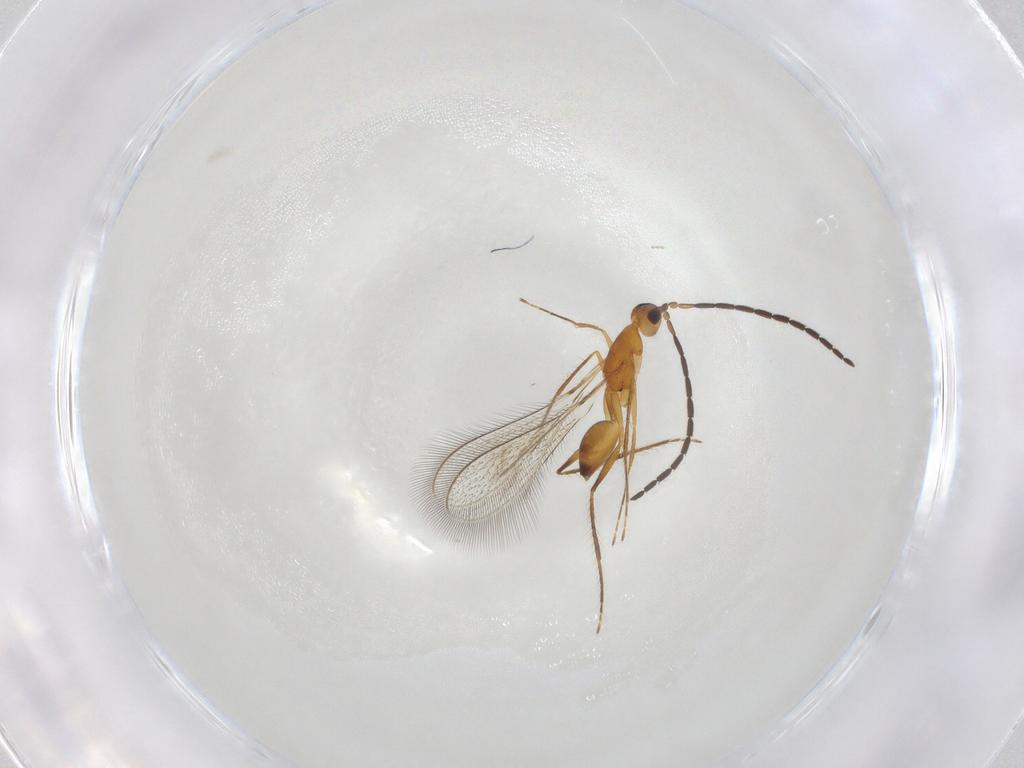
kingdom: Animalia
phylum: Arthropoda
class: Insecta
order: Diptera
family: Cecidomyiidae
